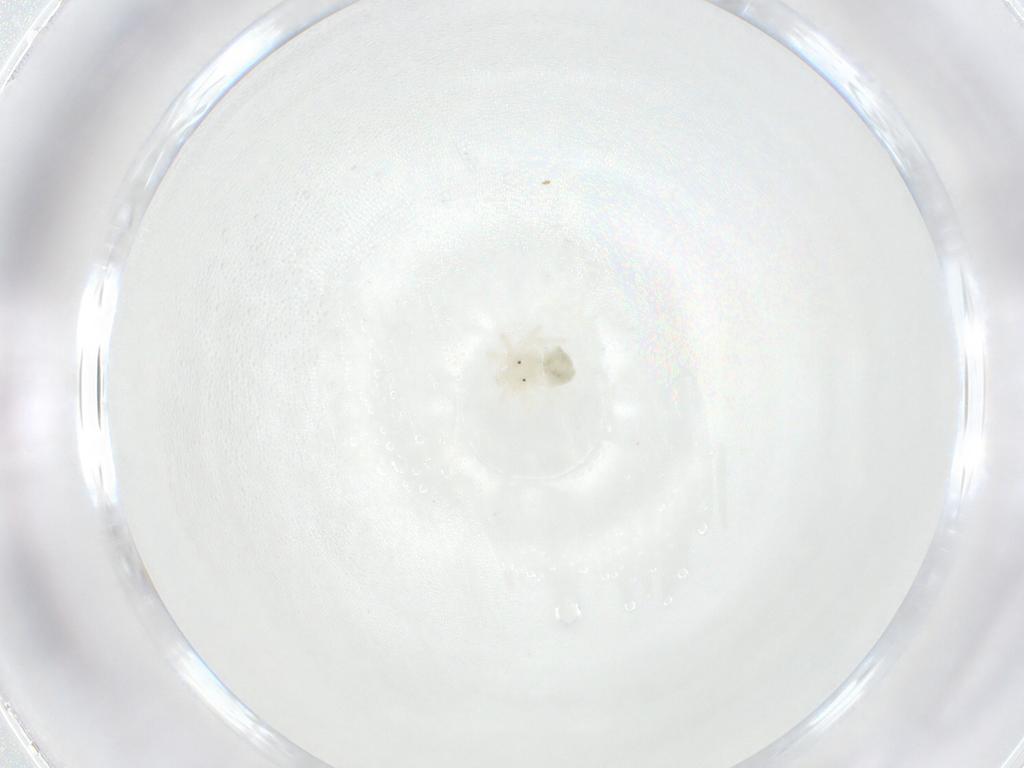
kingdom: Animalia
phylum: Arthropoda
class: Arachnida
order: Trombidiformes
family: Anystidae
